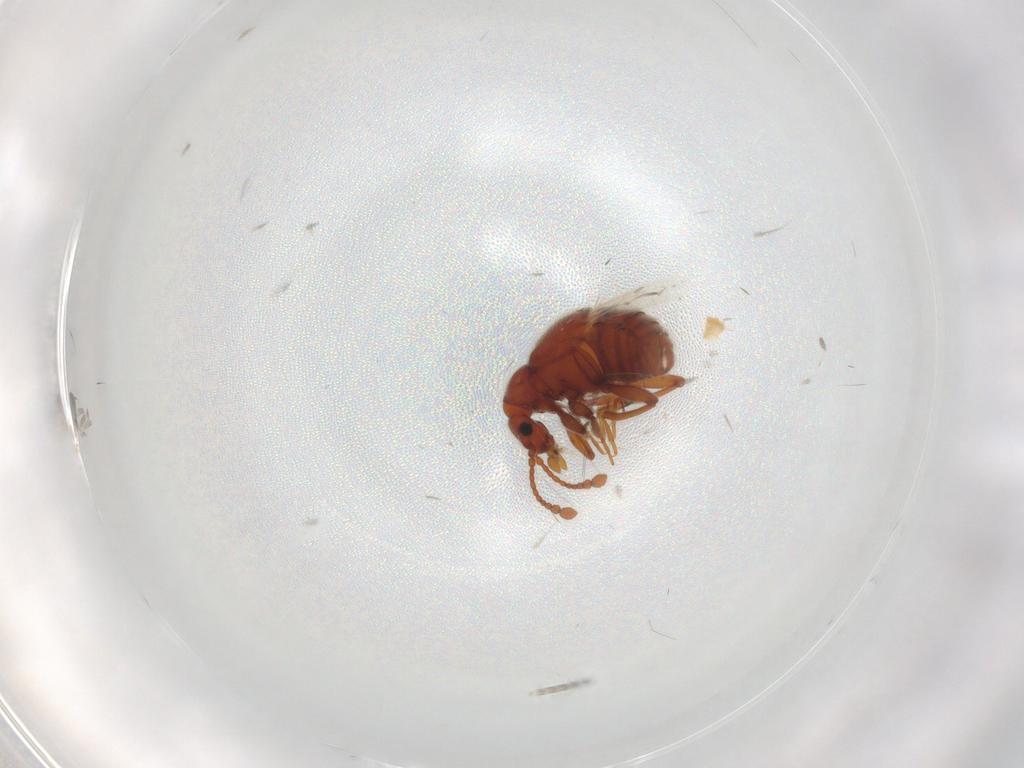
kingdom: Animalia
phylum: Arthropoda
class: Insecta
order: Coleoptera
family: Staphylinidae
